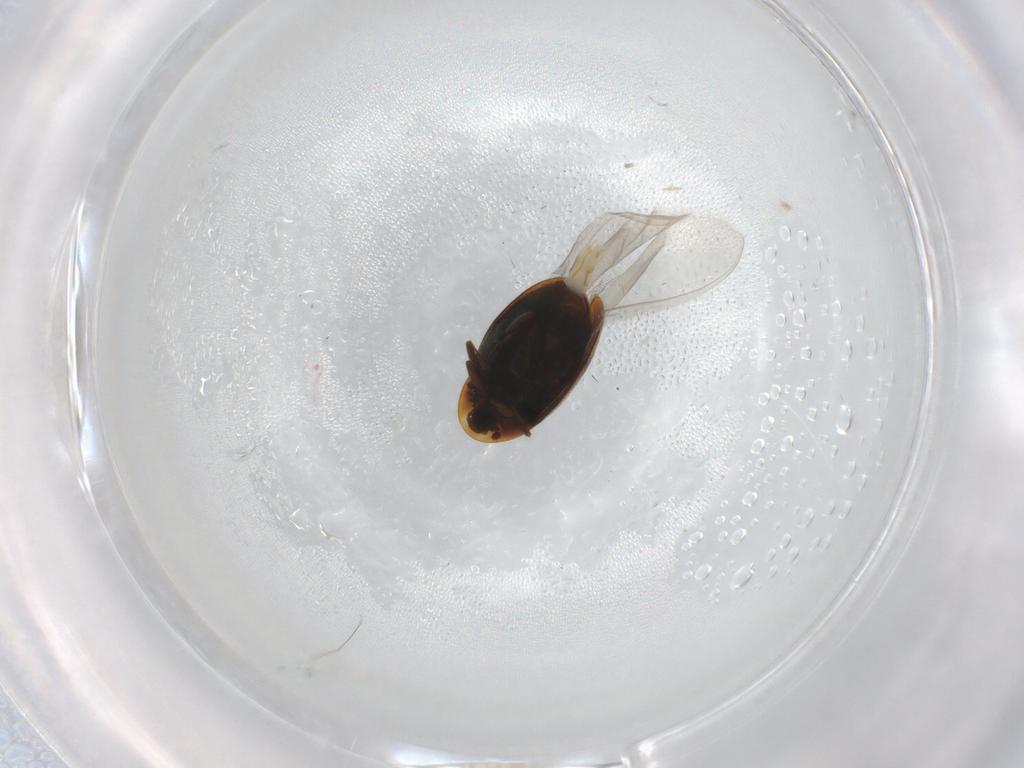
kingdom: Animalia
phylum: Arthropoda
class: Insecta
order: Coleoptera
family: Corylophidae
